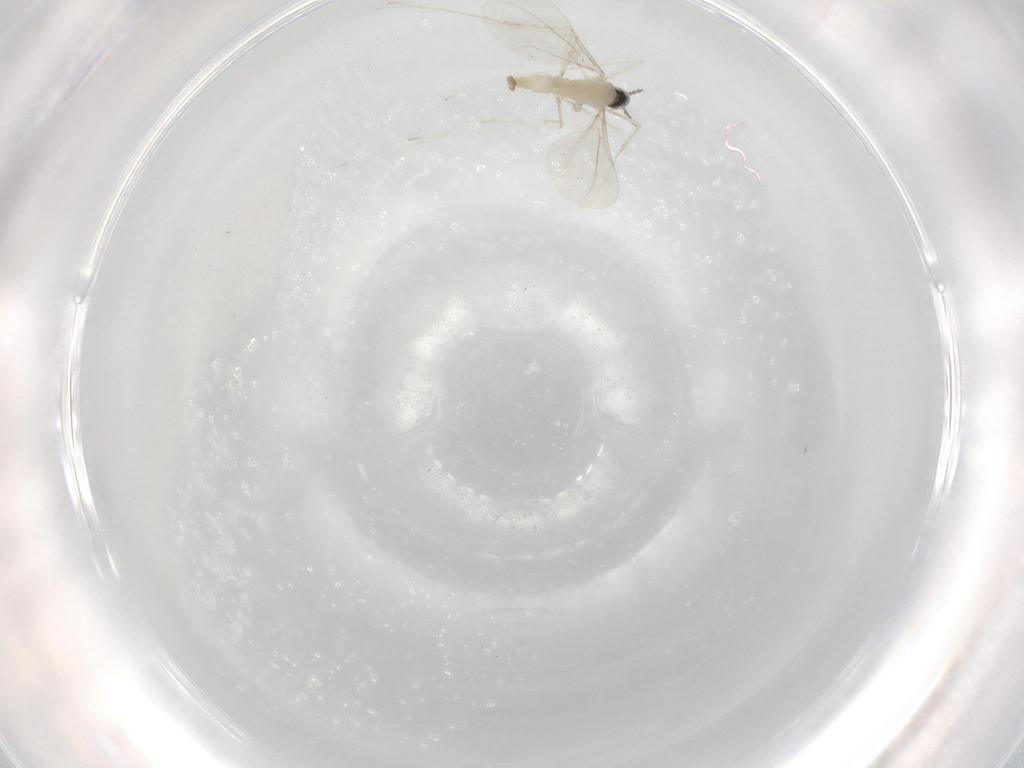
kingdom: Animalia
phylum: Arthropoda
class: Insecta
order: Diptera
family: Cecidomyiidae
